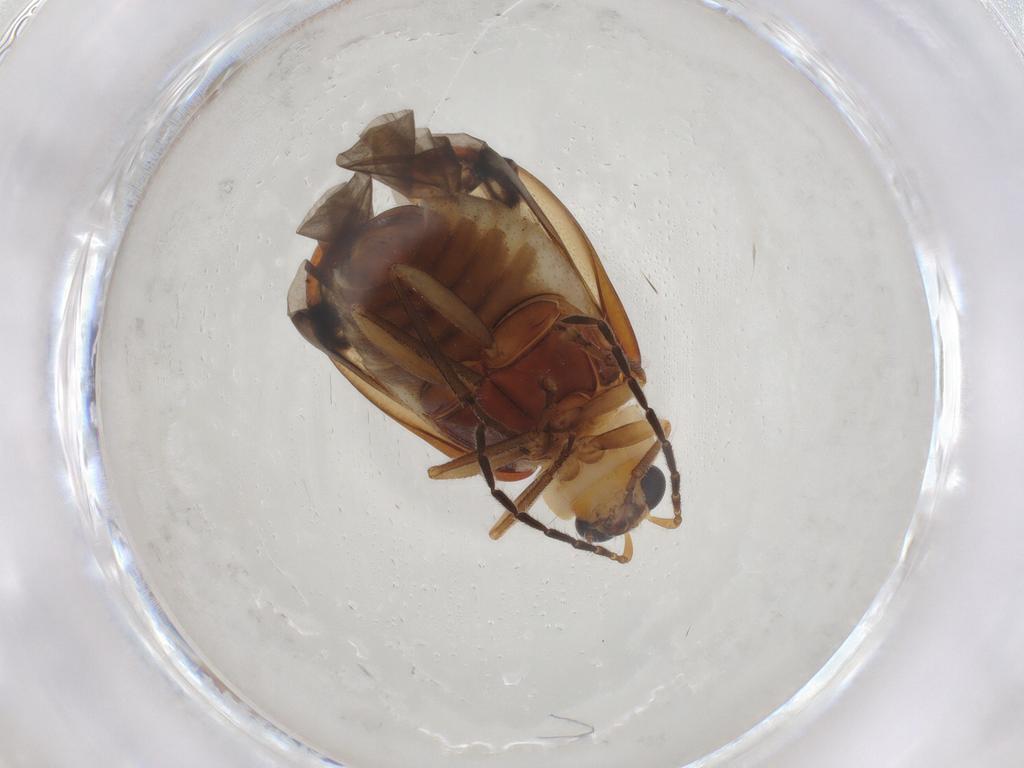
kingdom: Animalia
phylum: Arthropoda
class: Insecta
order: Coleoptera
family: Chrysomelidae
